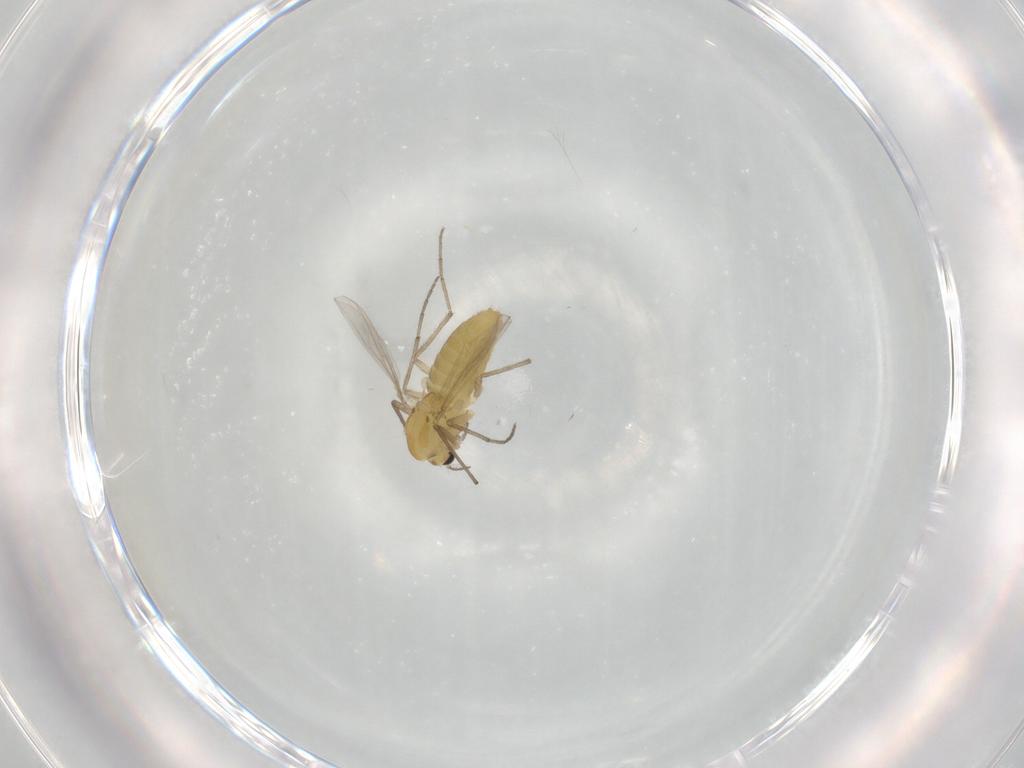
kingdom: Animalia
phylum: Arthropoda
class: Insecta
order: Diptera
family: Chironomidae
